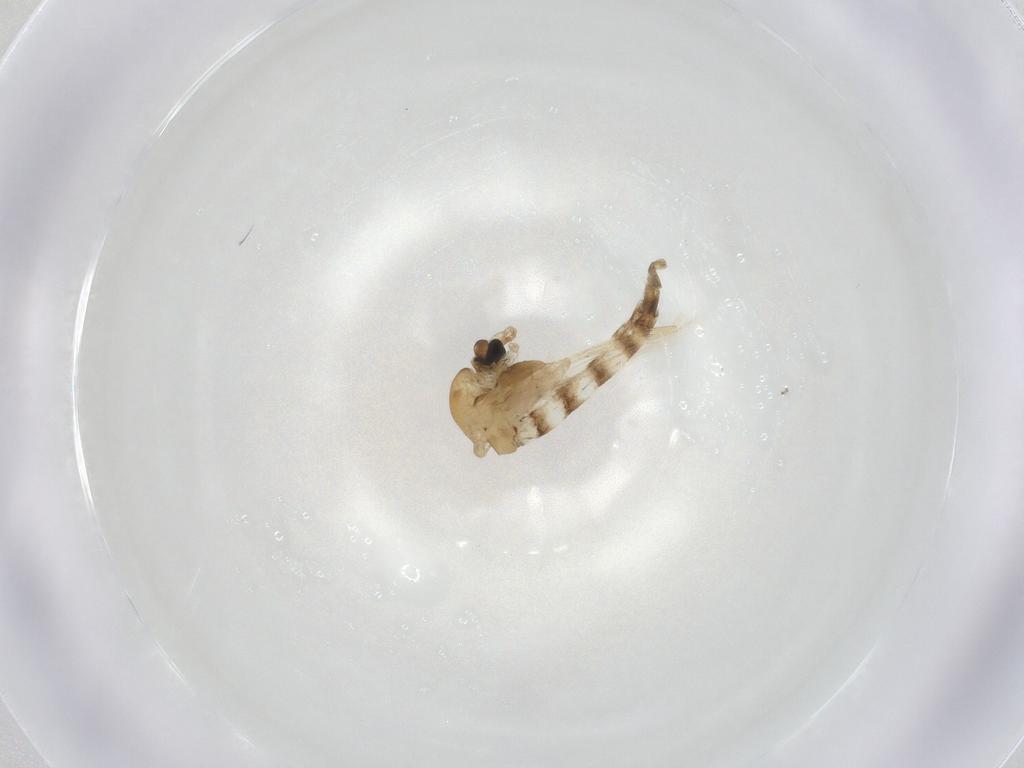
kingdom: Animalia
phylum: Arthropoda
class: Insecta
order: Diptera
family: Chironomidae
